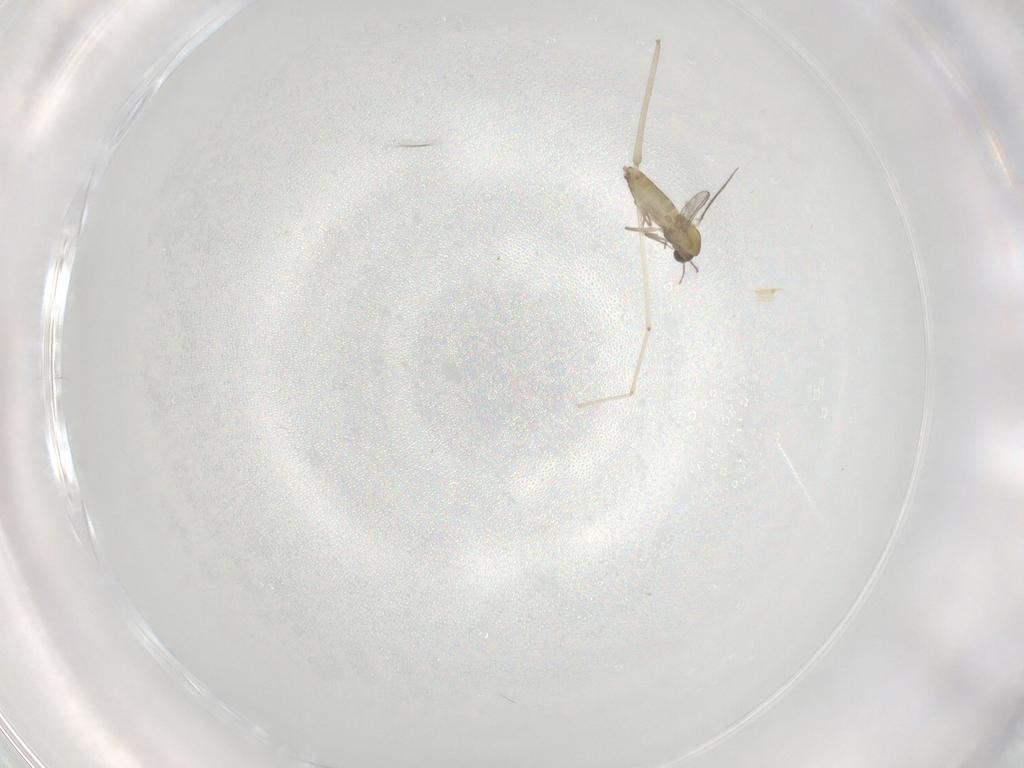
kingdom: Animalia
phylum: Arthropoda
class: Insecta
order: Diptera
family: Chironomidae
